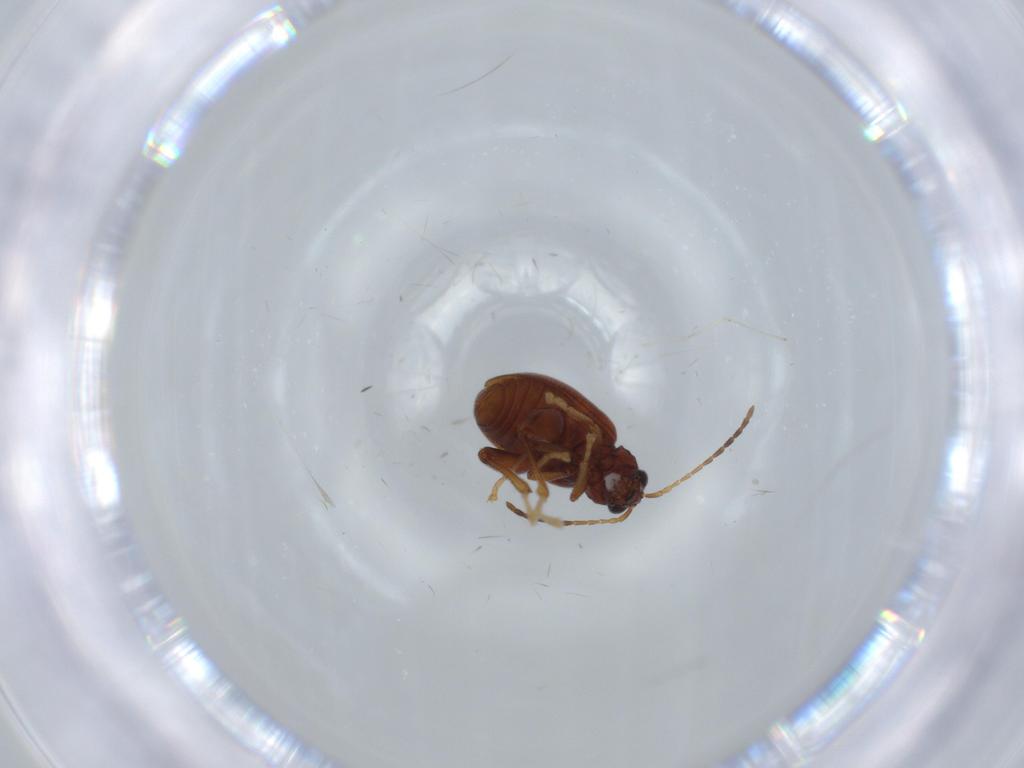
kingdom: Animalia
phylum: Arthropoda
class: Insecta
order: Coleoptera
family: Chrysomelidae
